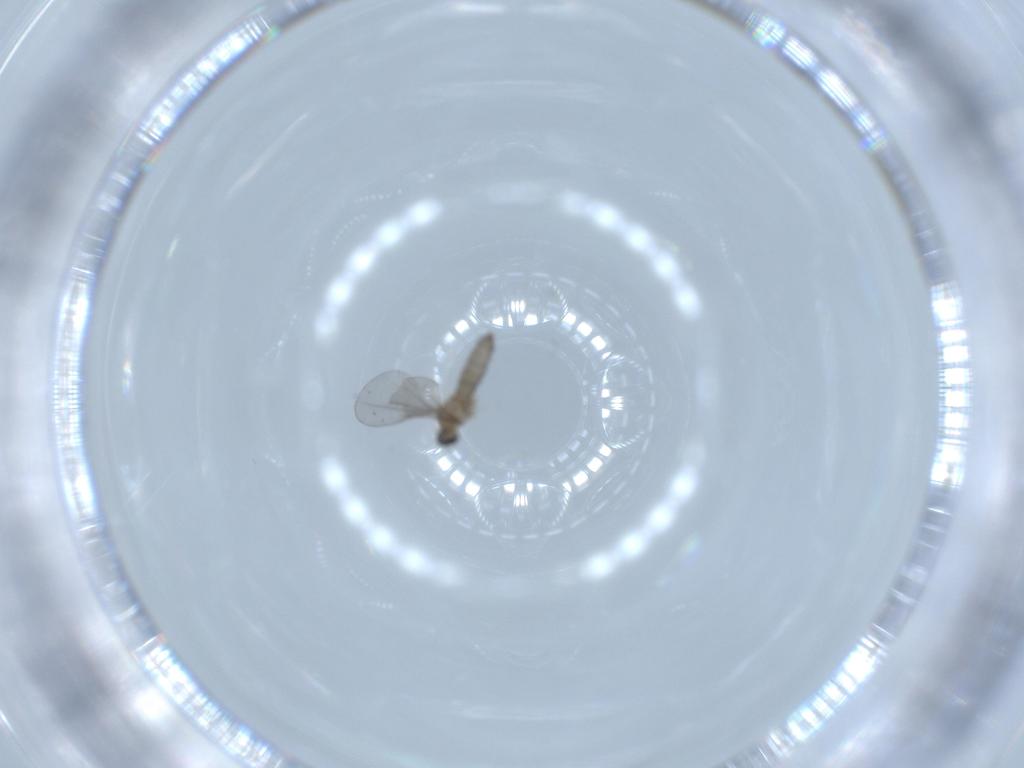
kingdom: Animalia
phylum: Arthropoda
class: Insecta
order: Diptera
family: Cecidomyiidae
